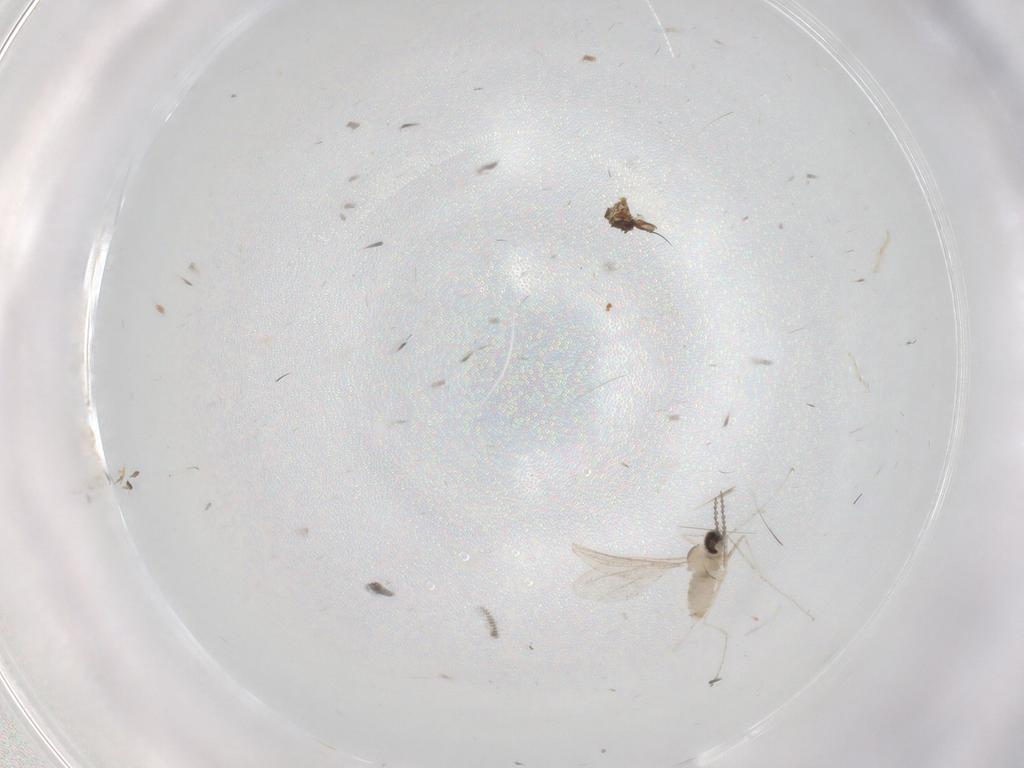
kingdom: Animalia
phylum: Arthropoda
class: Insecta
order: Diptera
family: Cecidomyiidae
